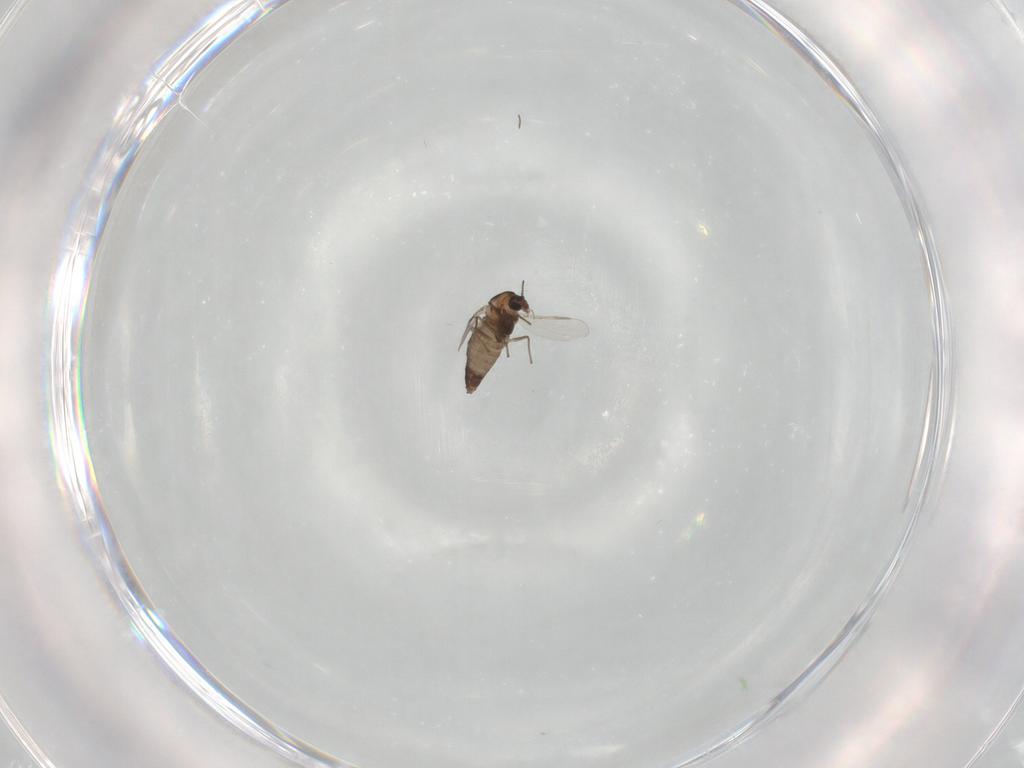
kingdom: Animalia
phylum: Arthropoda
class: Insecta
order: Diptera
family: Chironomidae
